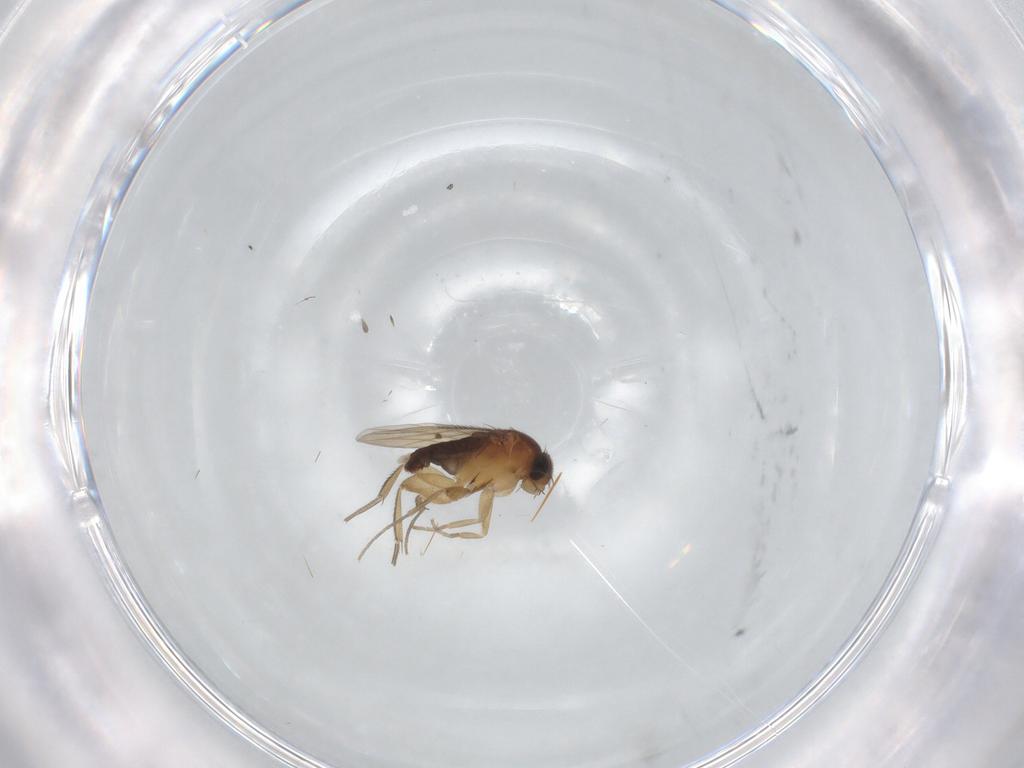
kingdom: Animalia
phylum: Arthropoda
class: Insecta
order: Diptera
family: Phoridae
